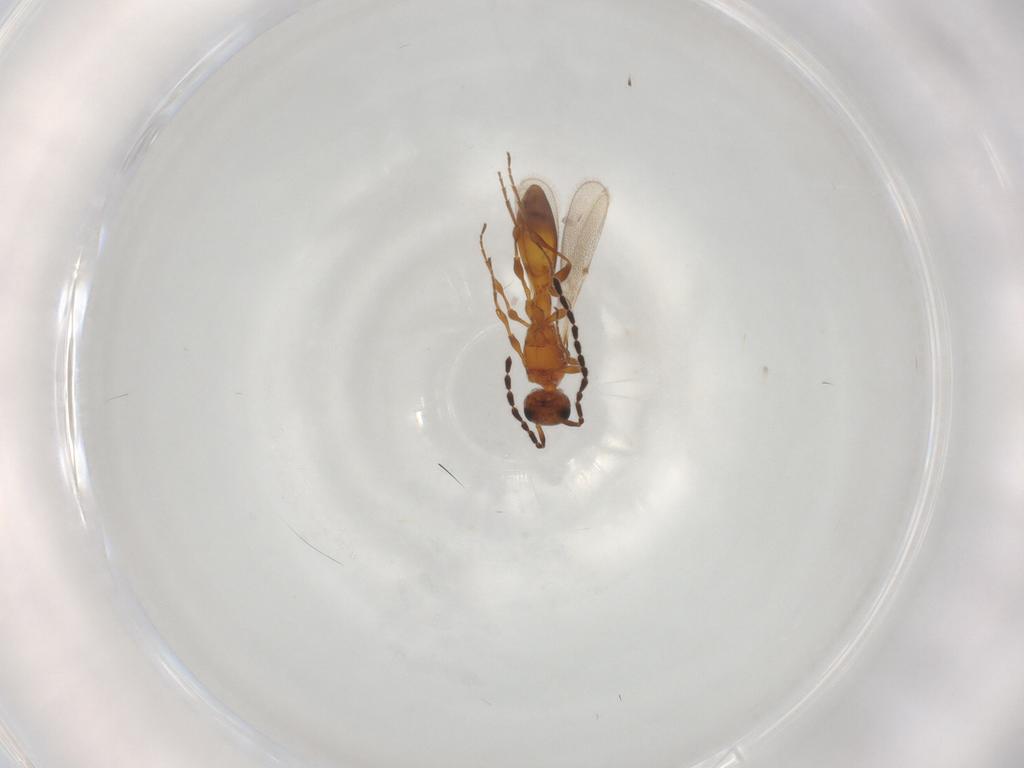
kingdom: Animalia
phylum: Arthropoda
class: Insecta
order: Hymenoptera
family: Scelionidae
